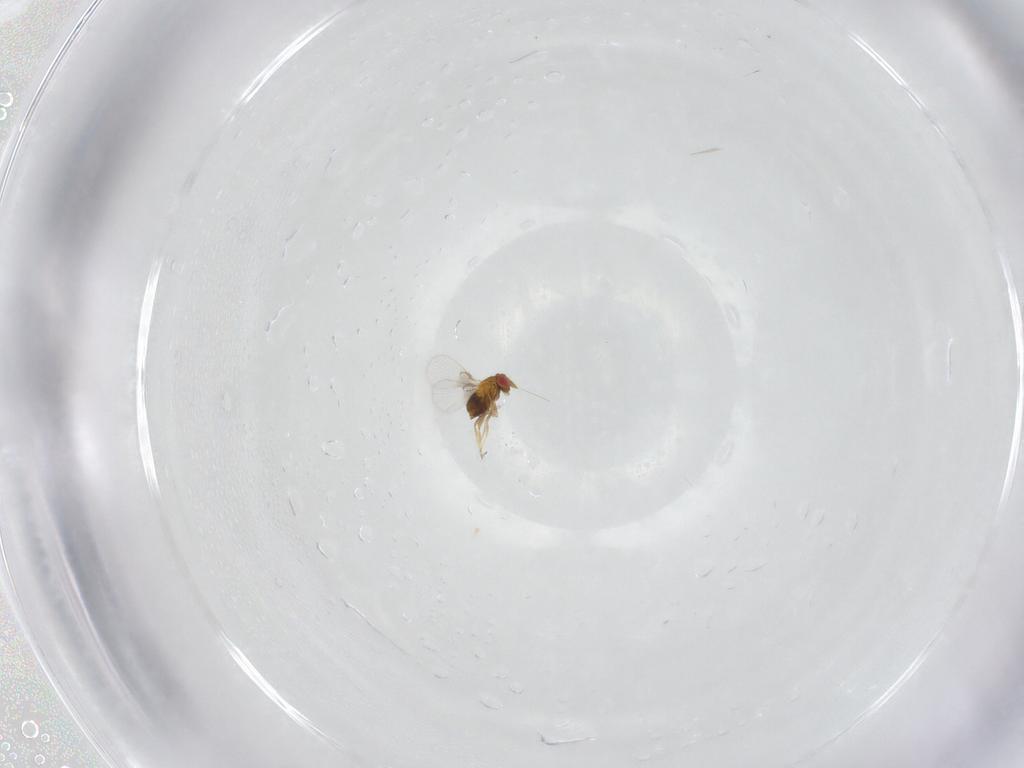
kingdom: Animalia
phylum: Arthropoda
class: Insecta
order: Hymenoptera
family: Trichogrammatidae
